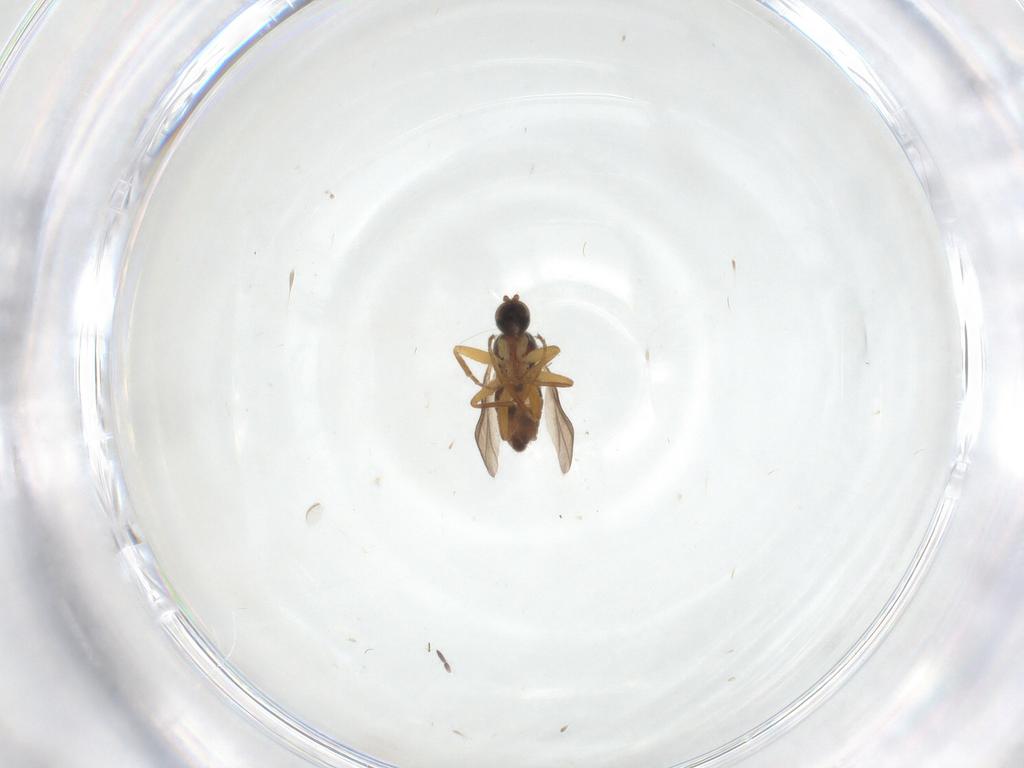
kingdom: Animalia
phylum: Arthropoda
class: Insecta
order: Diptera
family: Hybotidae
